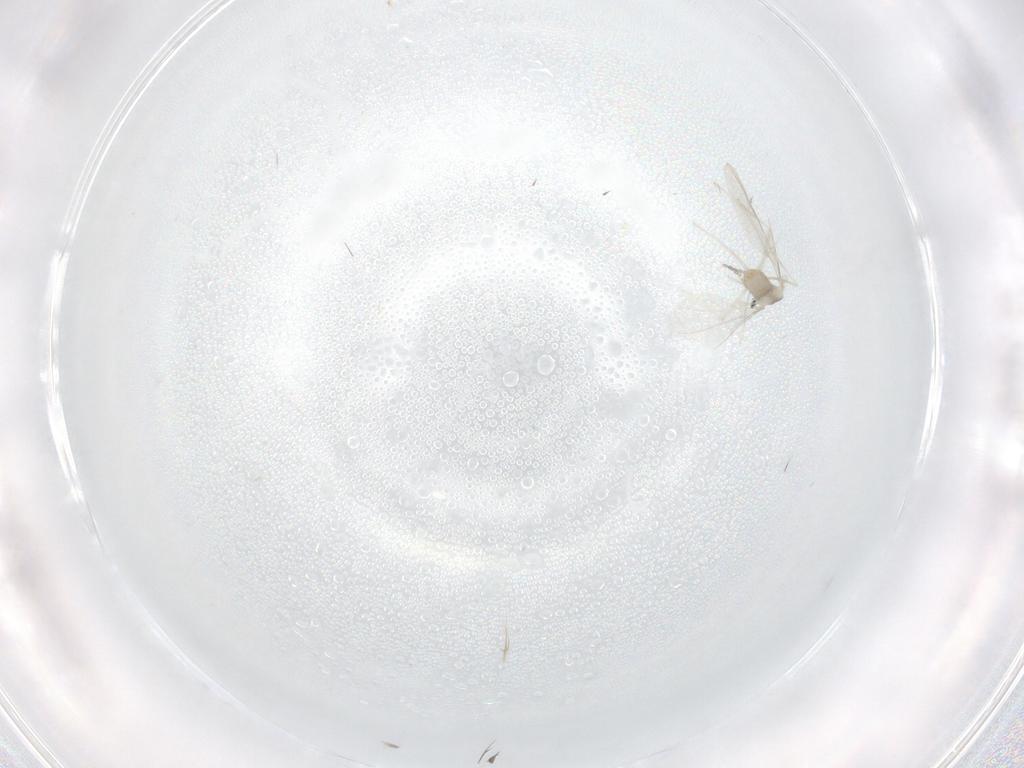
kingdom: Animalia
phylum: Arthropoda
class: Insecta
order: Diptera
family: Cecidomyiidae
